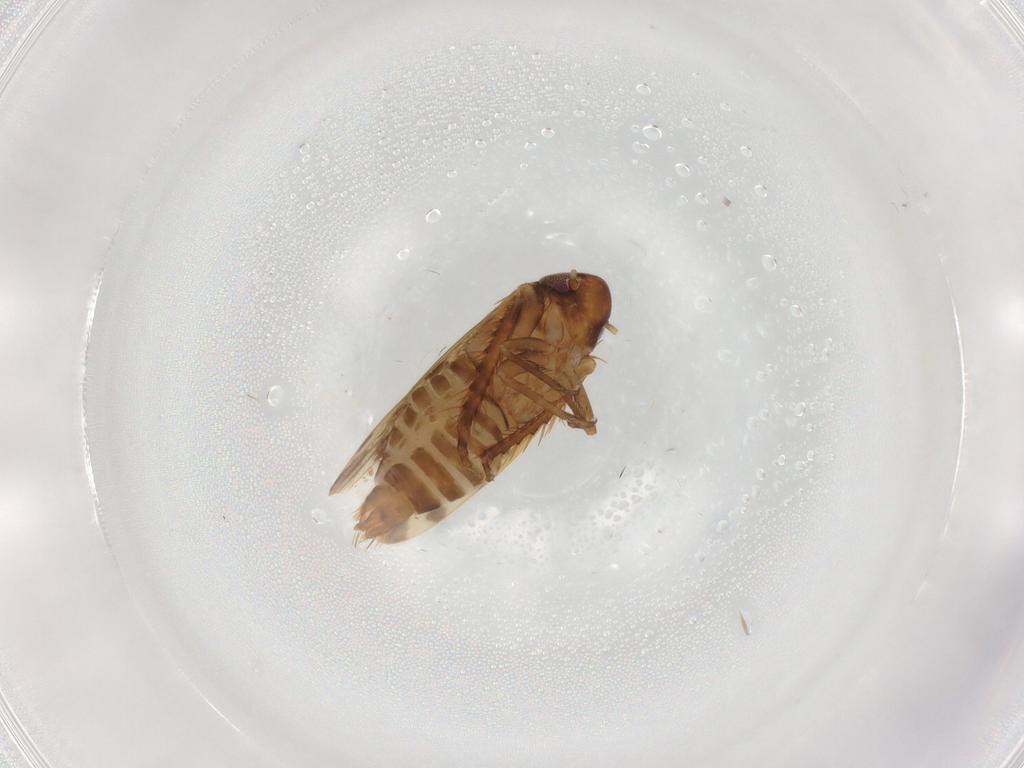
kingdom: Animalia
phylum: Arthropoda
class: Insecta
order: Hemiptera
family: Cicadellidae
